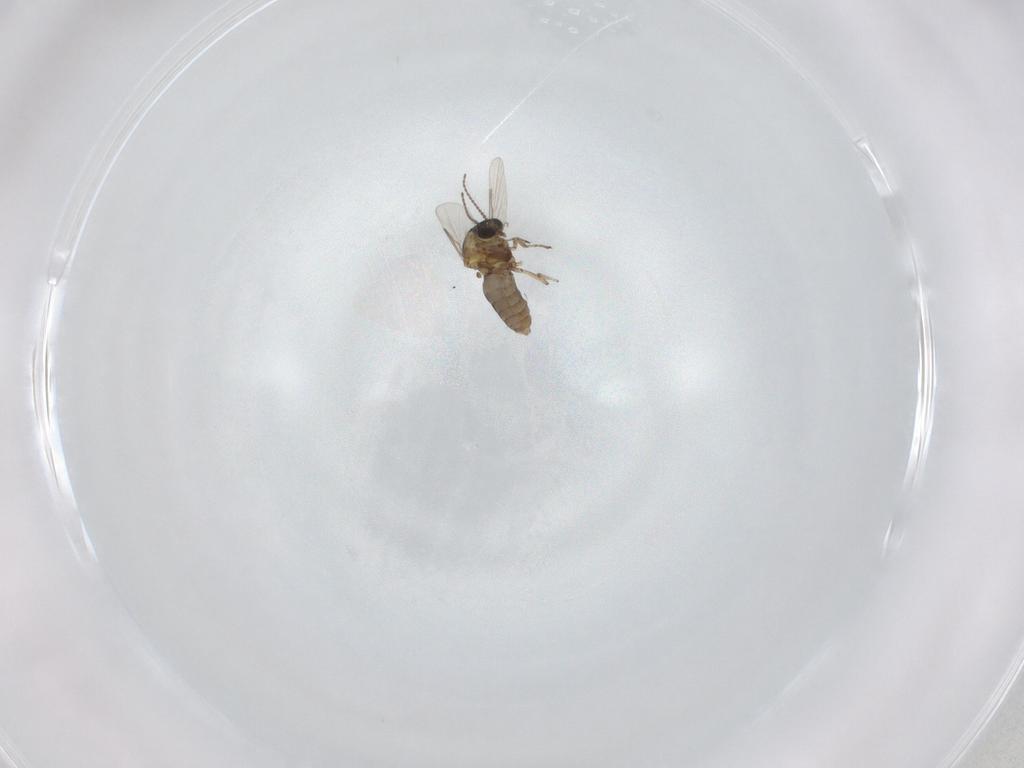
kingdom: Animalia
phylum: Arthropoda
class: Insecta
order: Diptera
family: Ceratopogonidae
